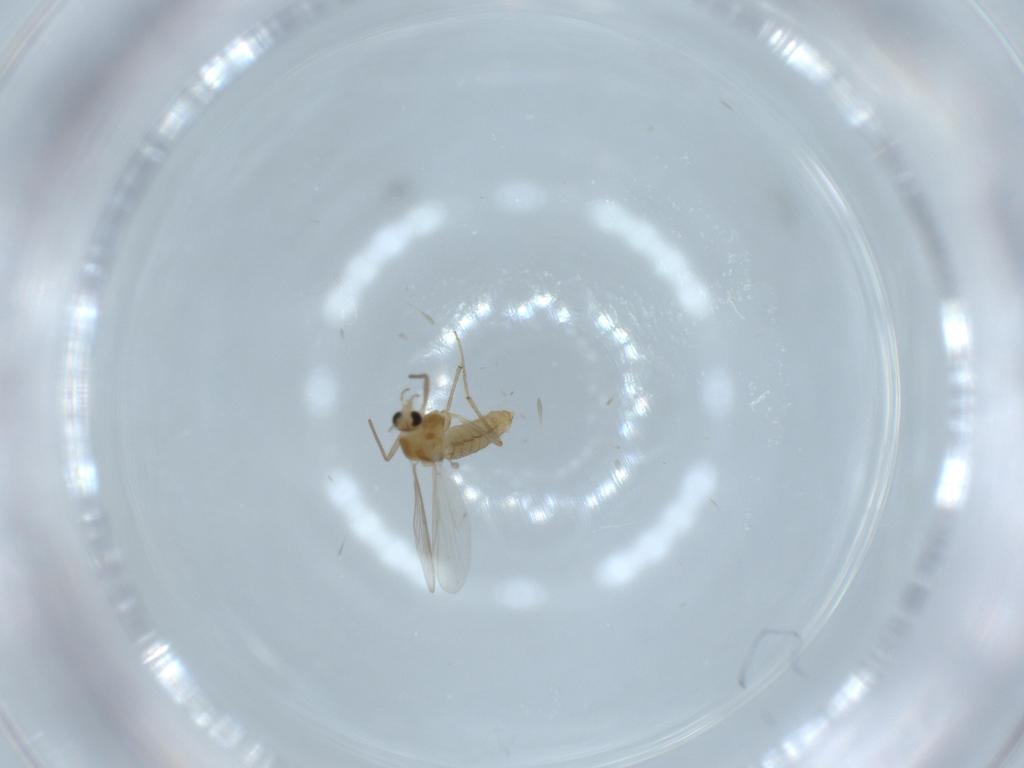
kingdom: Animalia
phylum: Arthropoda
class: Insecta
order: Diptera
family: Chironomidae
